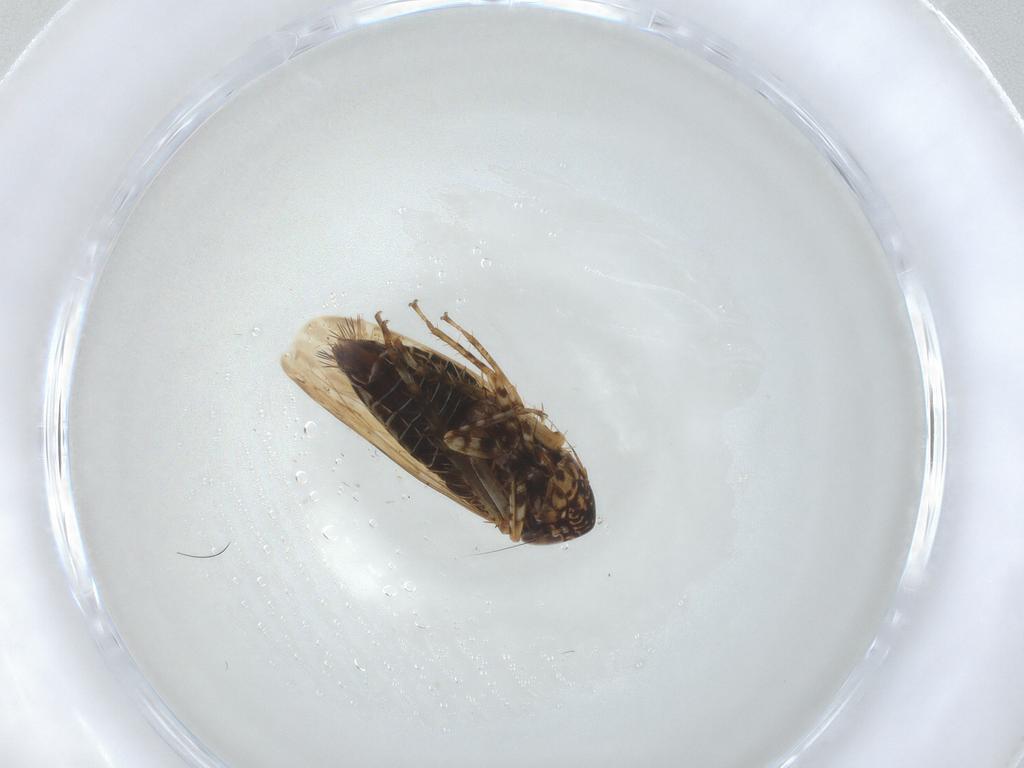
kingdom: Animalia
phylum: Arthropoda
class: Insecta
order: Hemiptera
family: Cicadellidae
